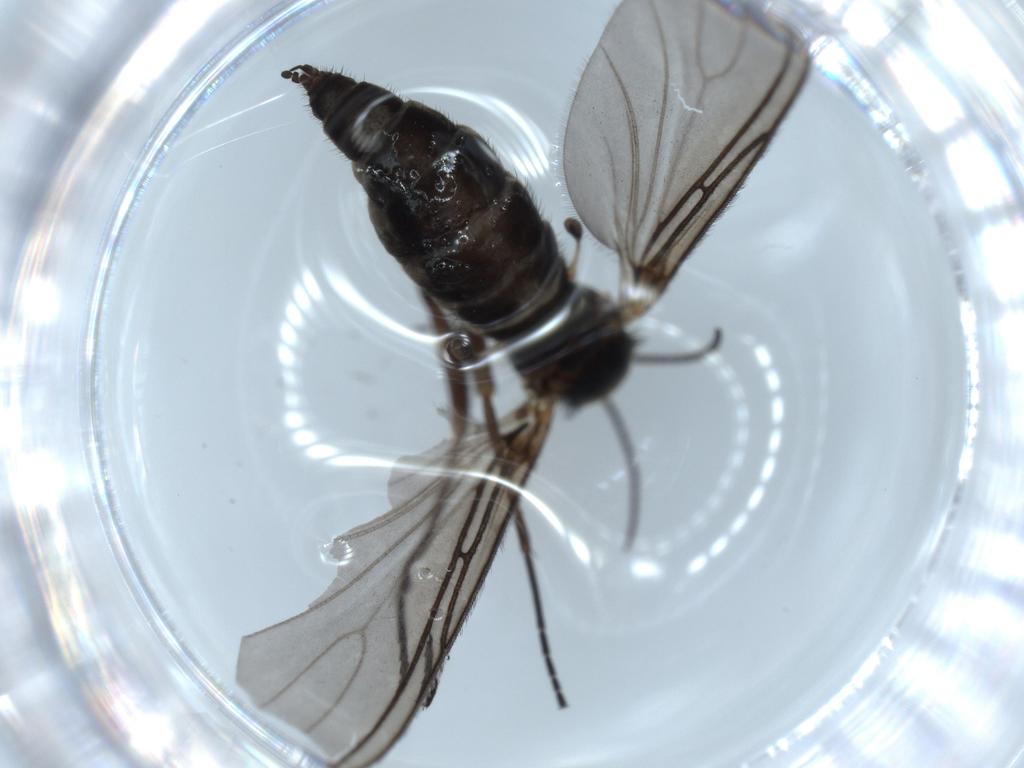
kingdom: Animalia
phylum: Arthropoda
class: Insecta
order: Diptera
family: Sciaridae
